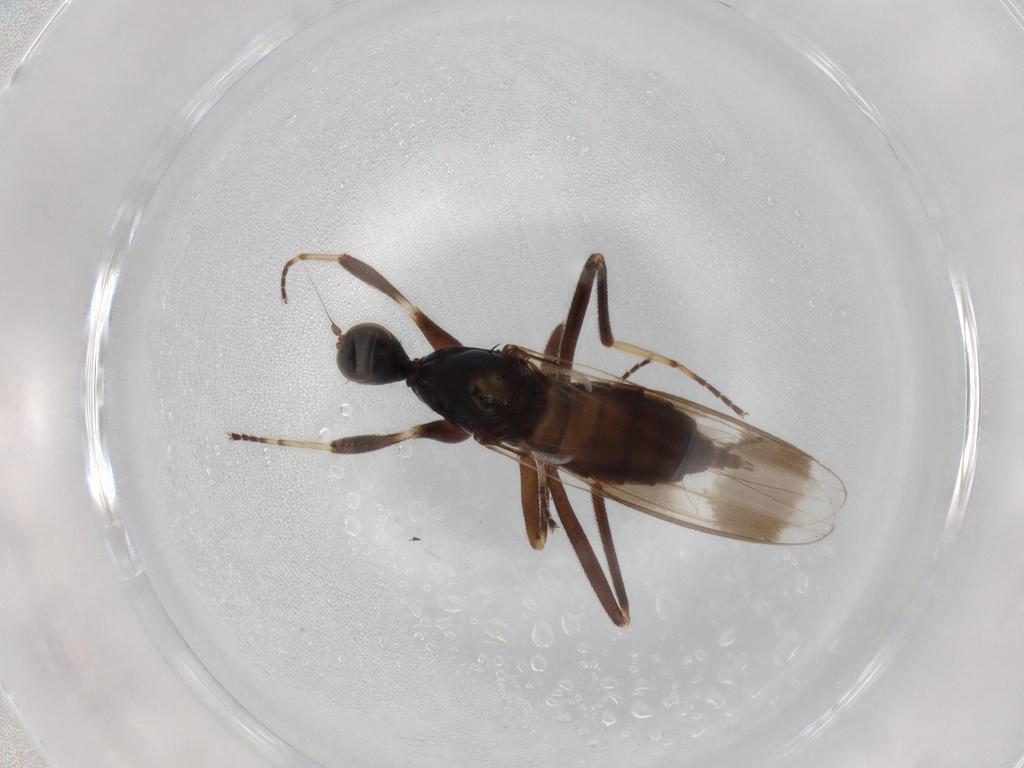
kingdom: Animalia
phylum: Arthropoda
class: Insecta
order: Diptera
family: Hybotidae
